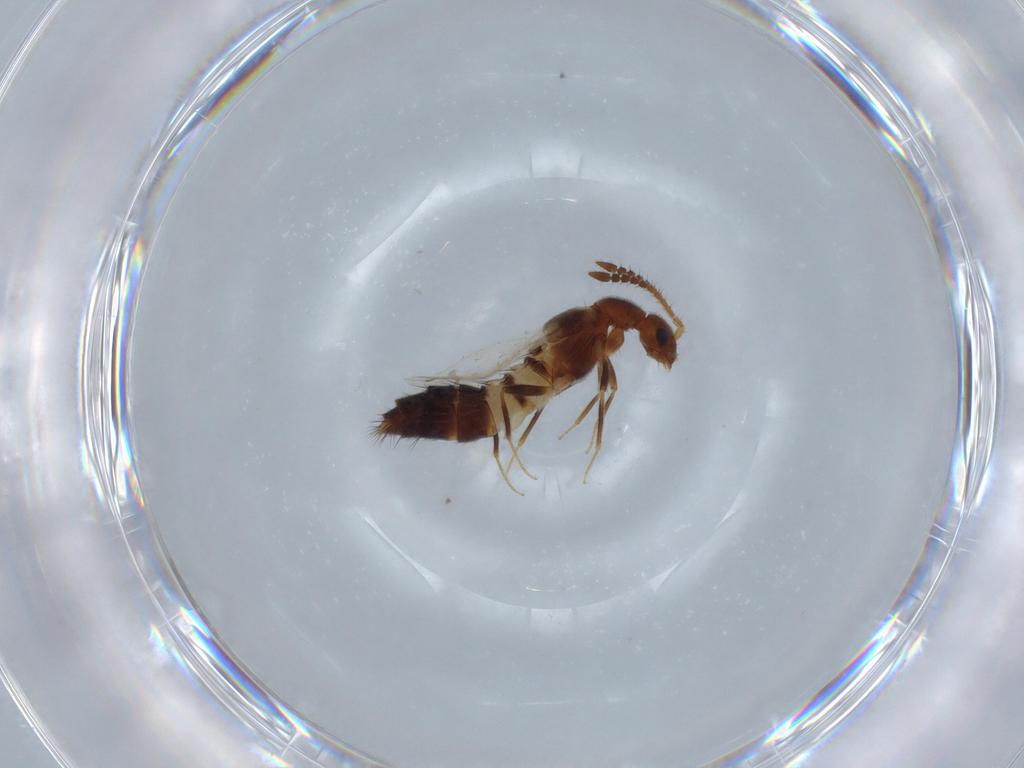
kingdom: Animalia
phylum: Arthropoda
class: Insecta
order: Coleoptera
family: Staphylinidae
